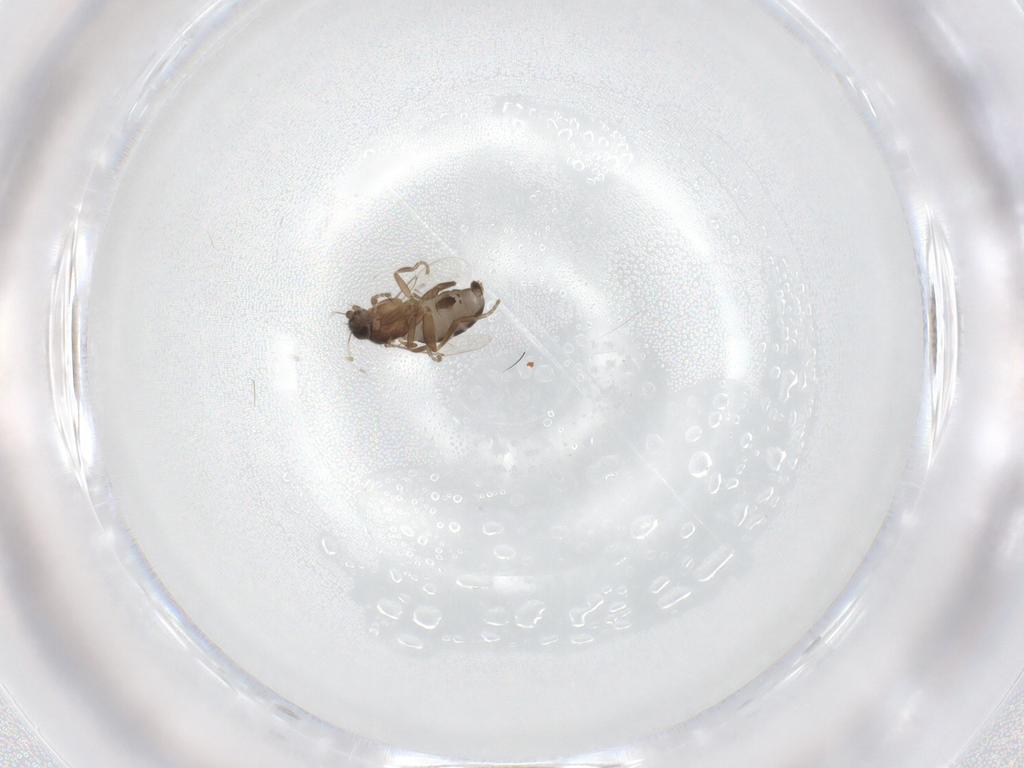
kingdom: Animalia
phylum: Arthropoda
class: Insecta
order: Diptera
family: Phoridae
